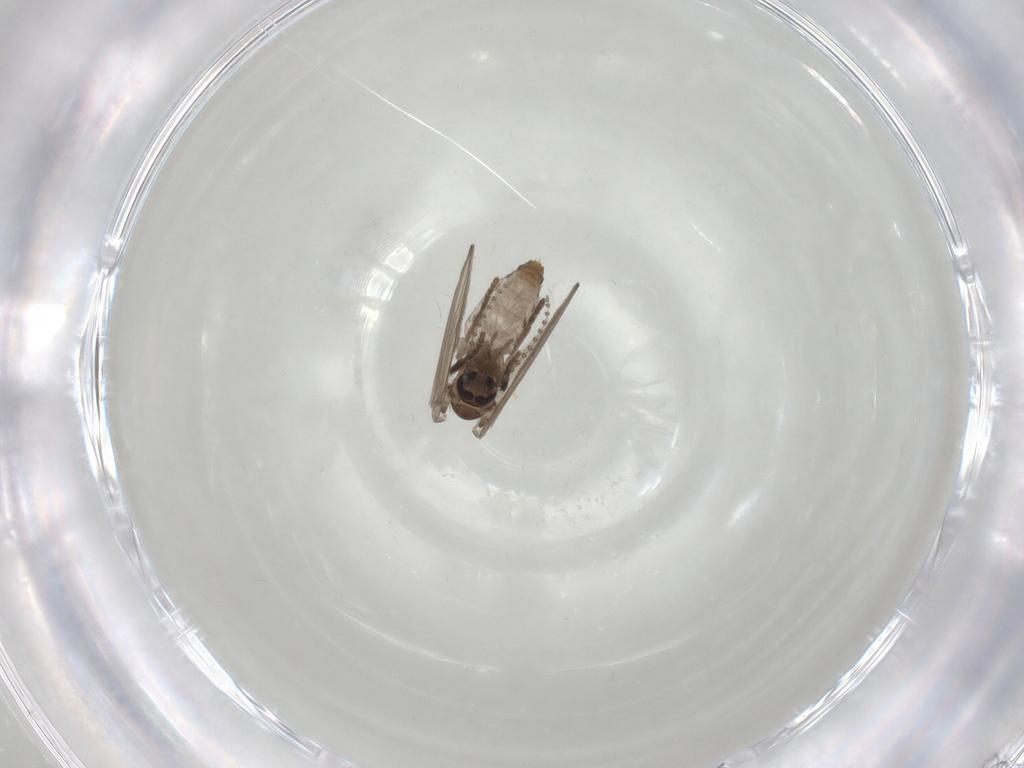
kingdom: Animalia
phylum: Arthropoda
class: Insecta
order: Diptera
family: Psychodidae
